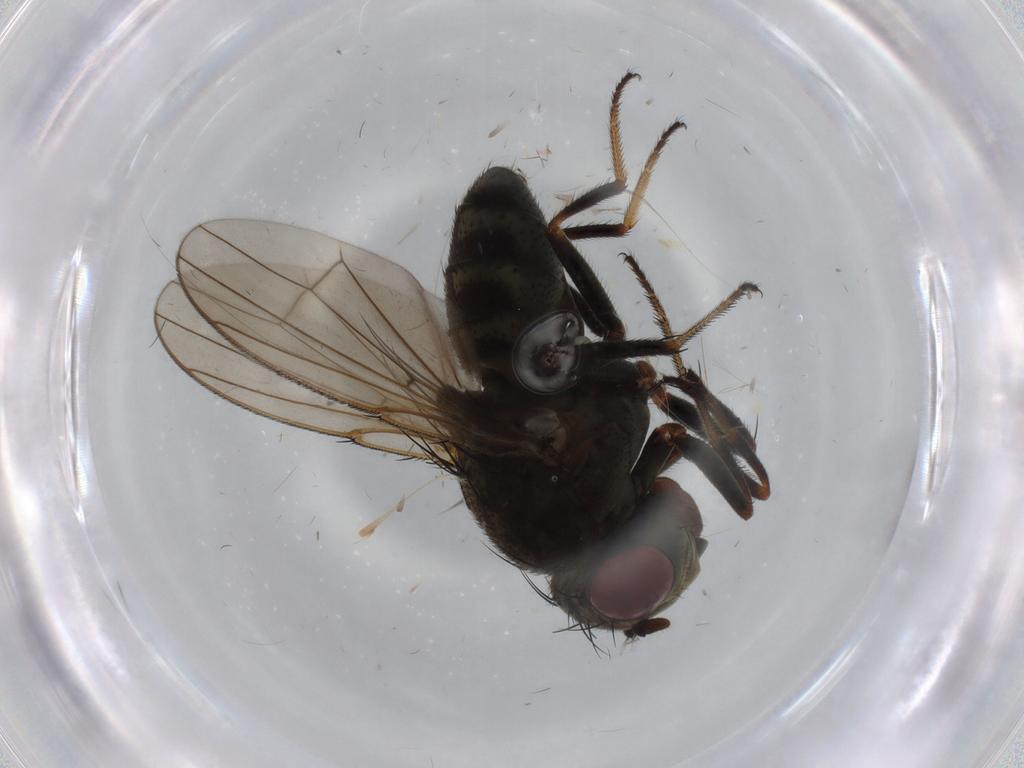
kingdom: Animalia
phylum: Arthropoda
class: Insecta
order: Diptera
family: Ephydridae
